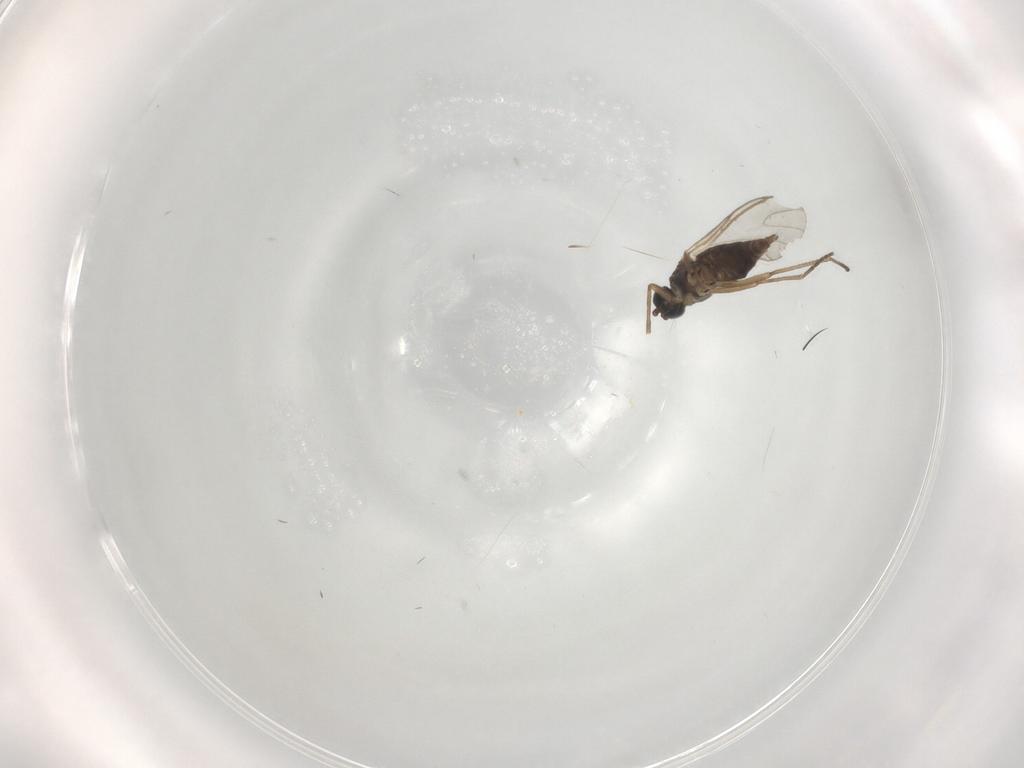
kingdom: Animalia
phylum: Arthropoda
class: Insecta
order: Diptera
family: Sciaridae
